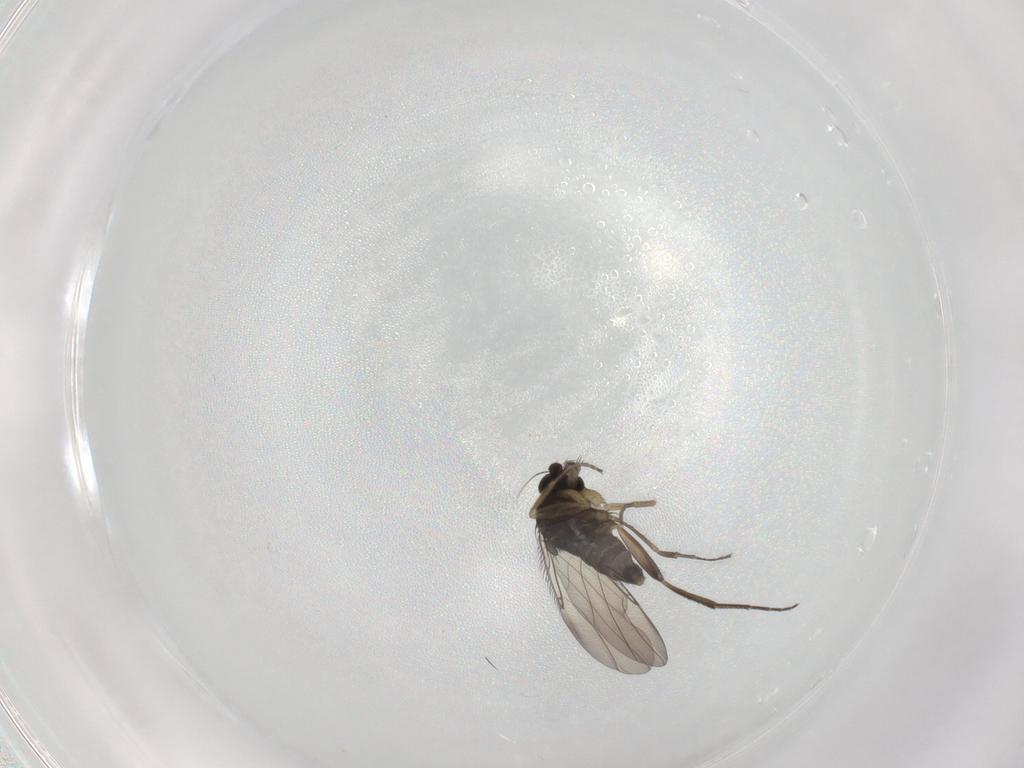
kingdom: Animalia
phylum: Arthropoda
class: Insecta
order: Diptera
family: Phoridae
